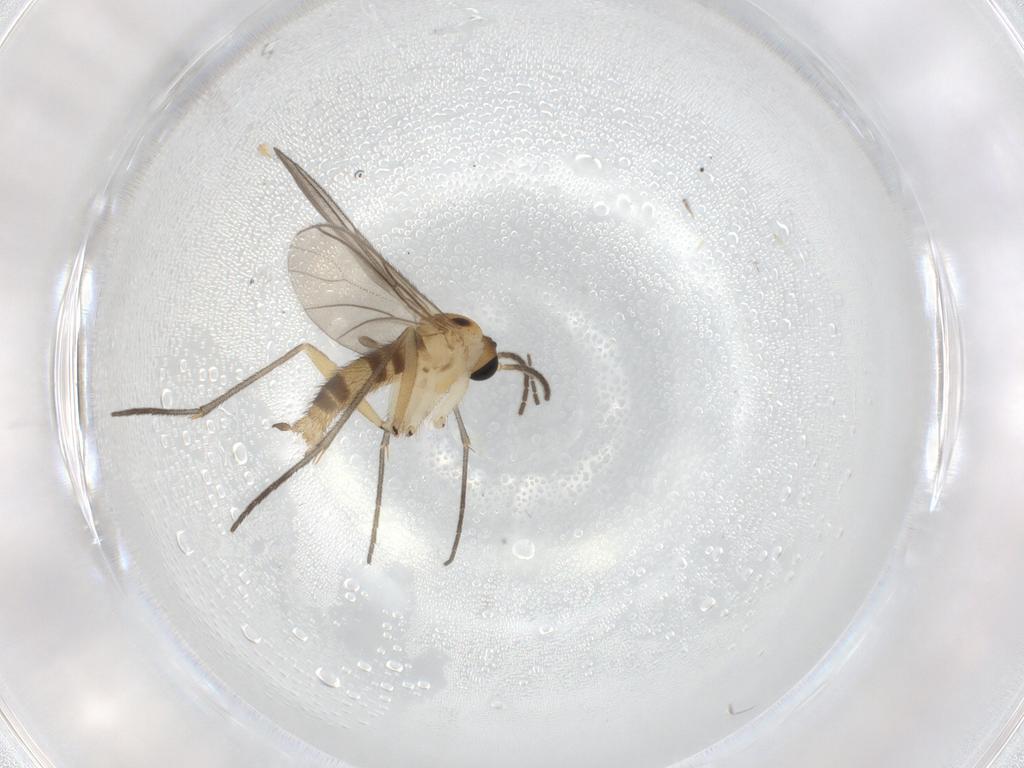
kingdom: Animalia
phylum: Arthropoda
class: Insecta
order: Diptera
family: Sciaridae
